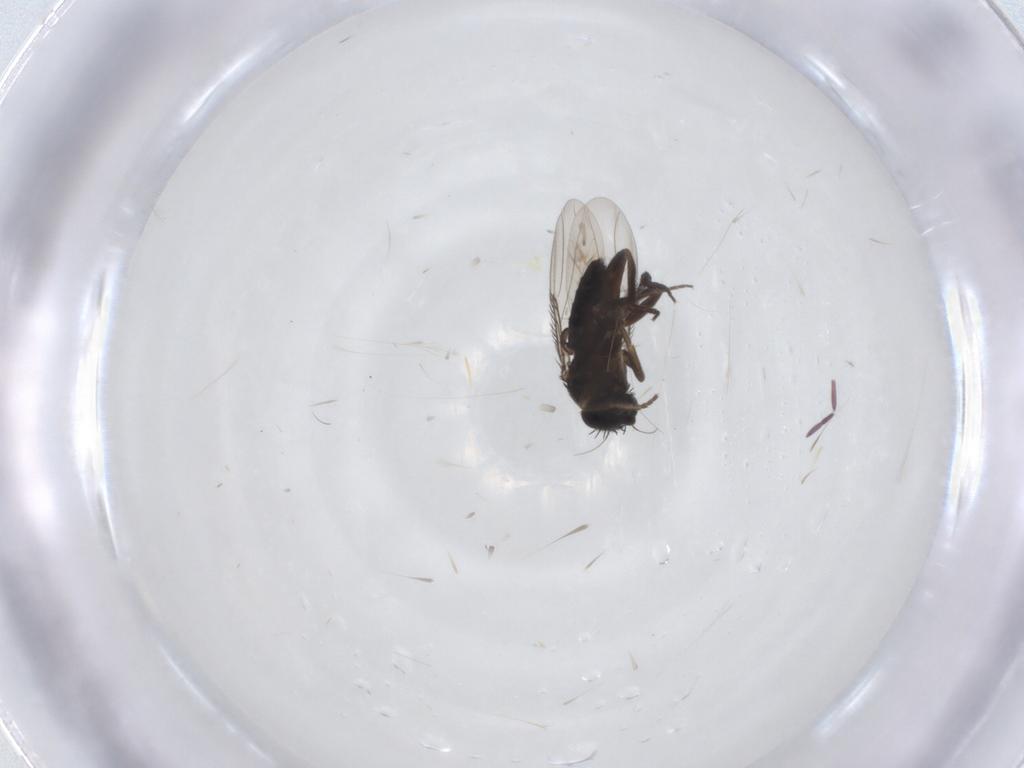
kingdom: Animalia
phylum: Arthropoda
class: Insecta
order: Diptera
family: Phoridae
